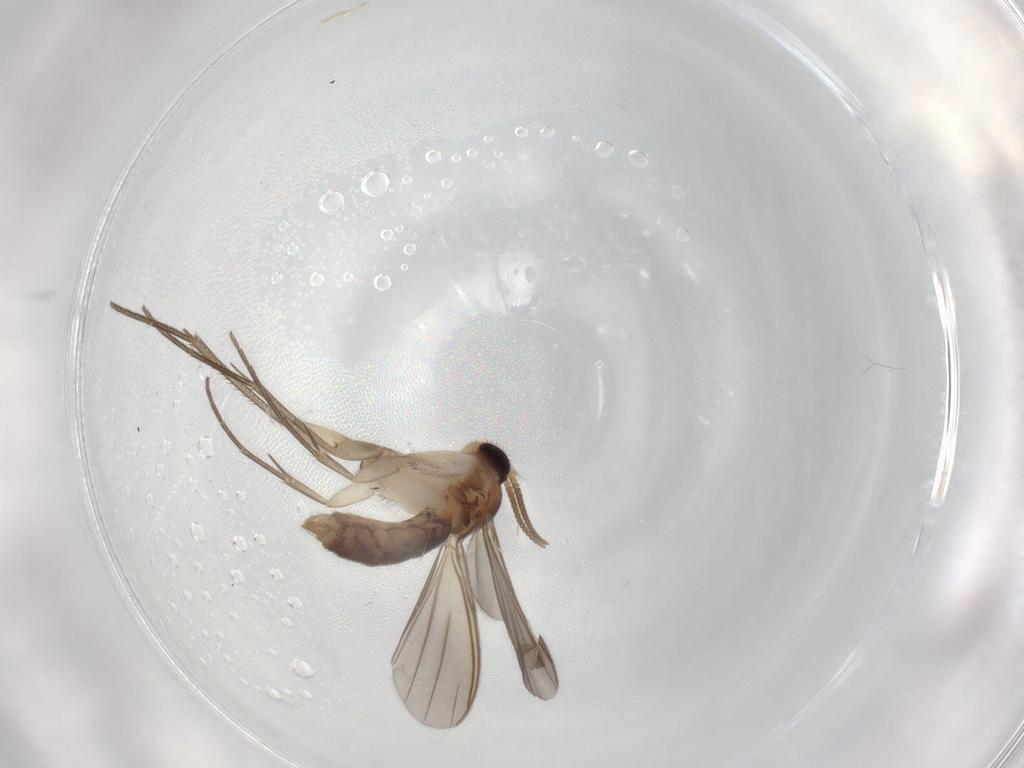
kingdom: Animalia
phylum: Arthropoda
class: Insecta
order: Diptera
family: Mycetophilidae
